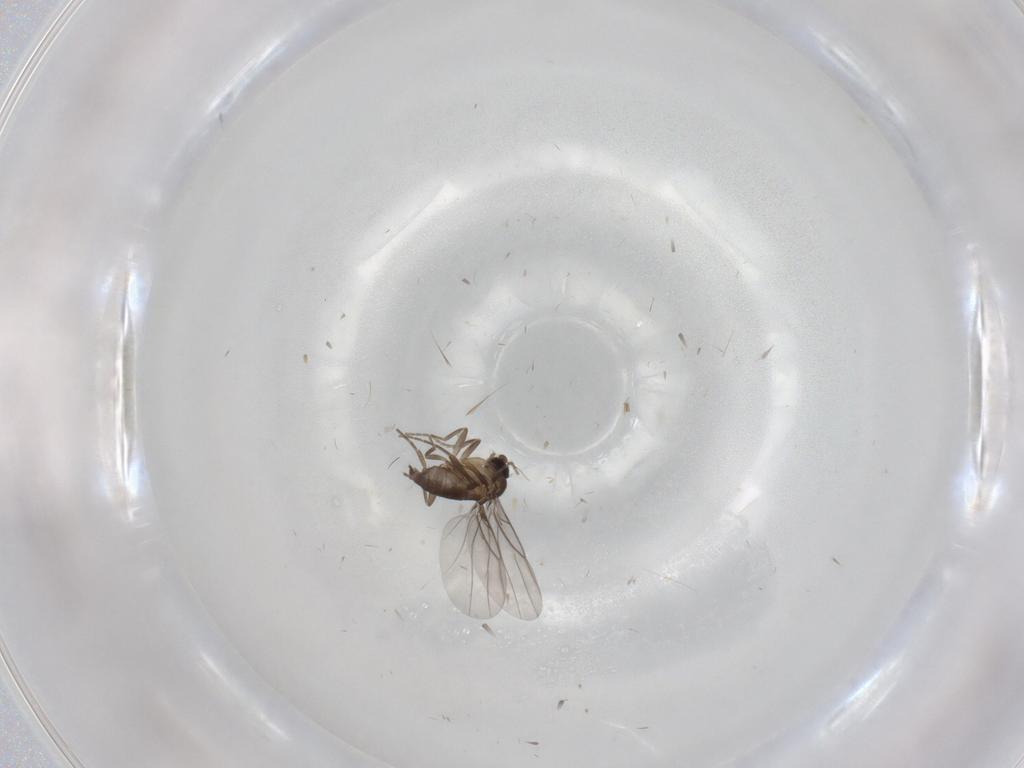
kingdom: Animalia
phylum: Arthropoda
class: Insecta
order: Diptera
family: Phoridae
